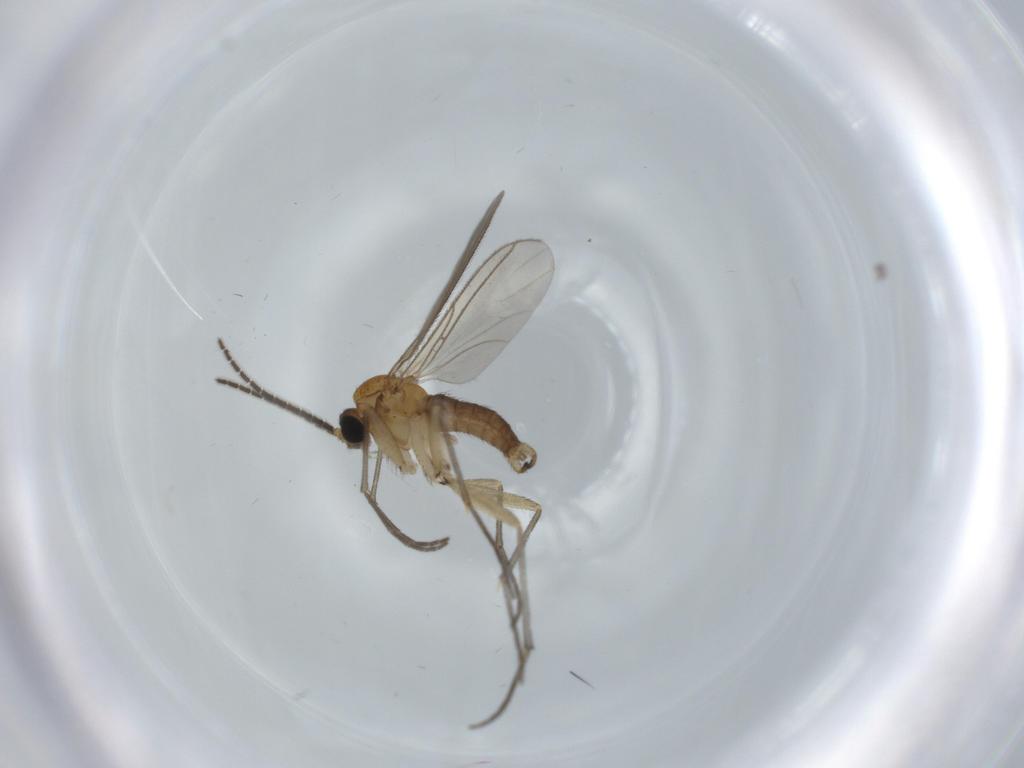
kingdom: Animalia
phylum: Arthropoda
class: Insecta
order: Diptera
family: Sciaridae
